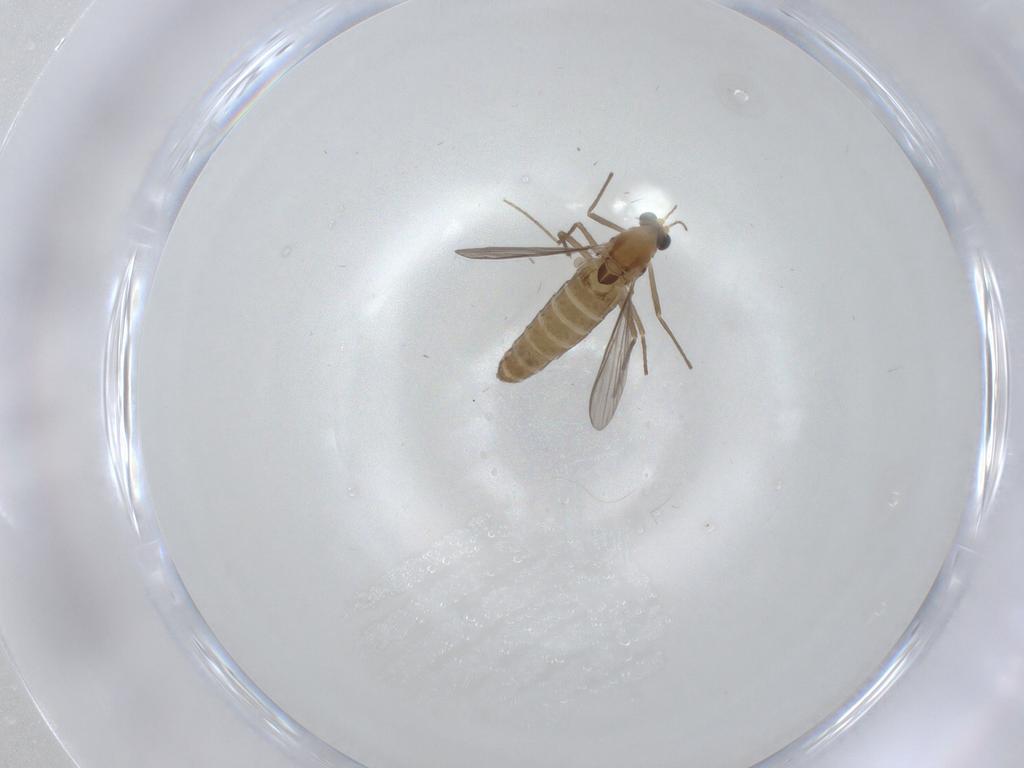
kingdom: Animalia
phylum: Arthropoda
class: Insecta
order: Diptera
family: Chironomidae
